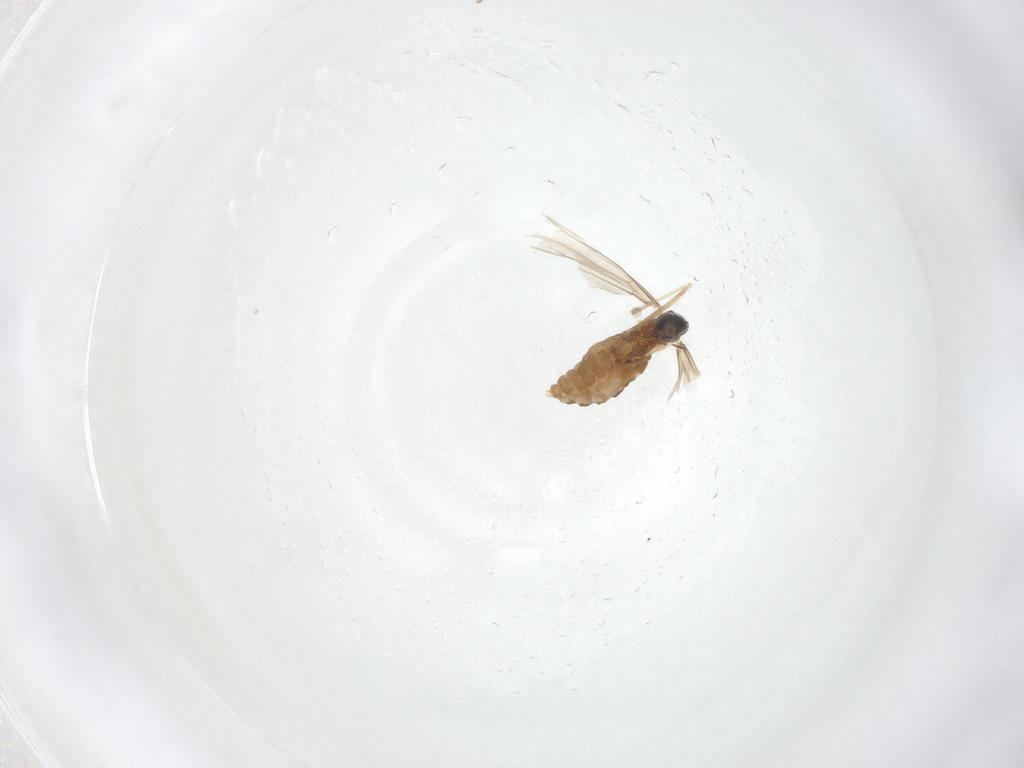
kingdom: Animalia
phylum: Arthropoda
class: Insecta
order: Diptera
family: Cecidomyiidae
